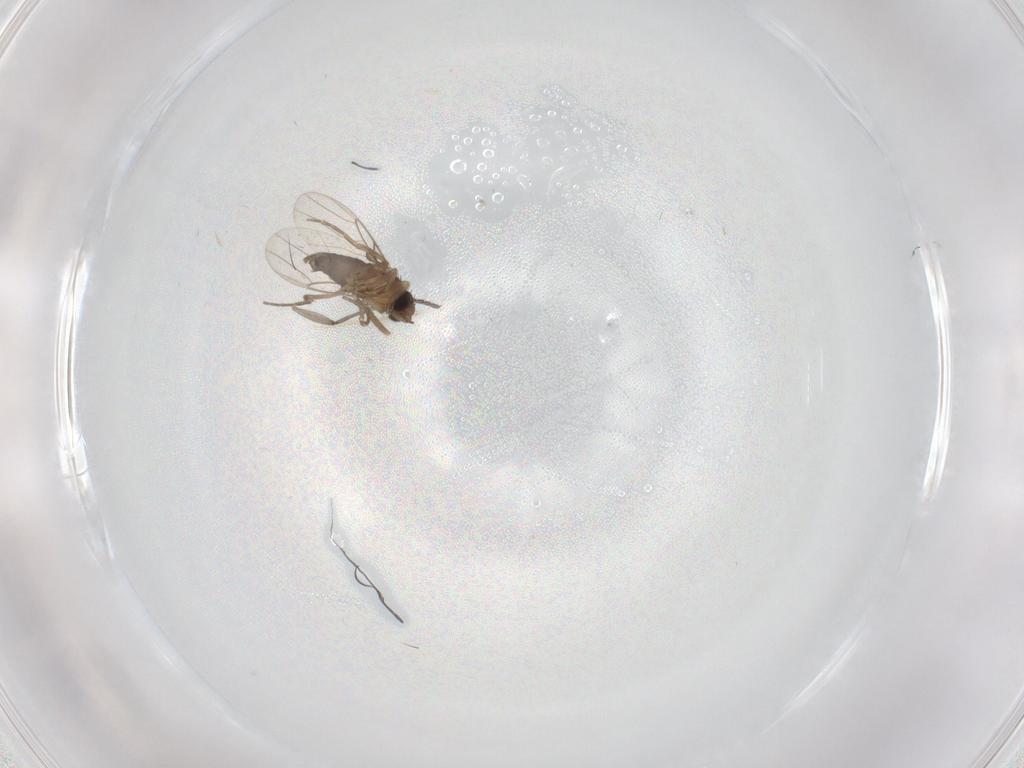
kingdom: Animalia
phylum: Arthropoda
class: Insecta
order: Diptera
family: Sciaridae
